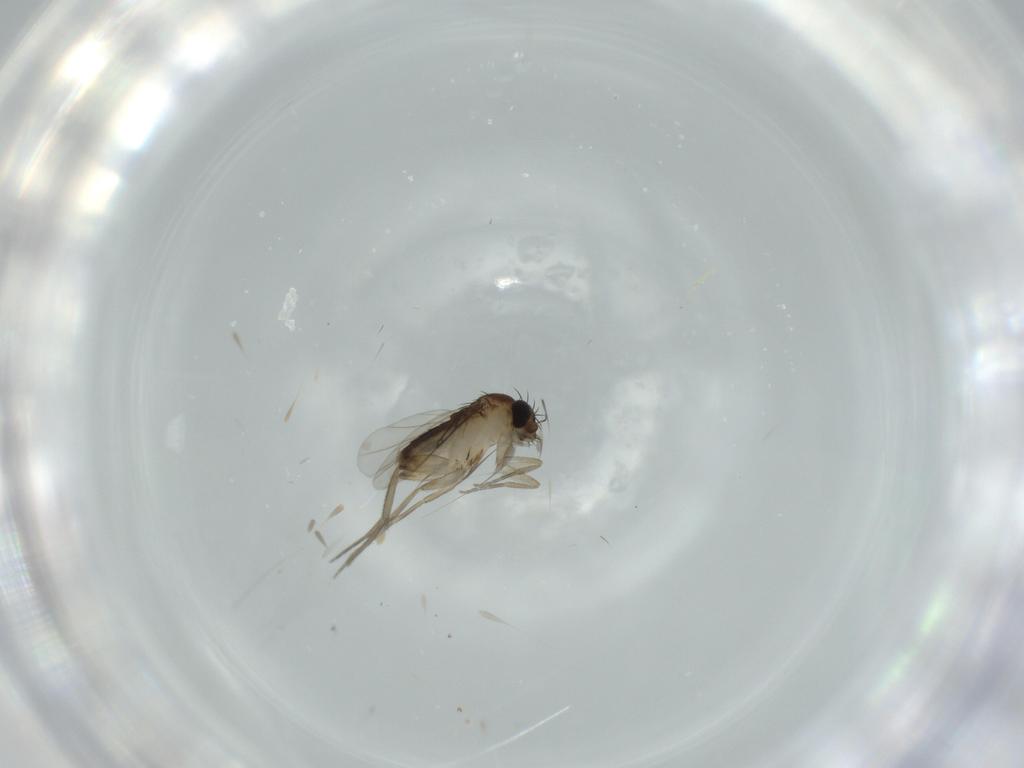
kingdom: Animalia
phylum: Arthropoda
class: Insecta
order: Diptera
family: Phoridae
